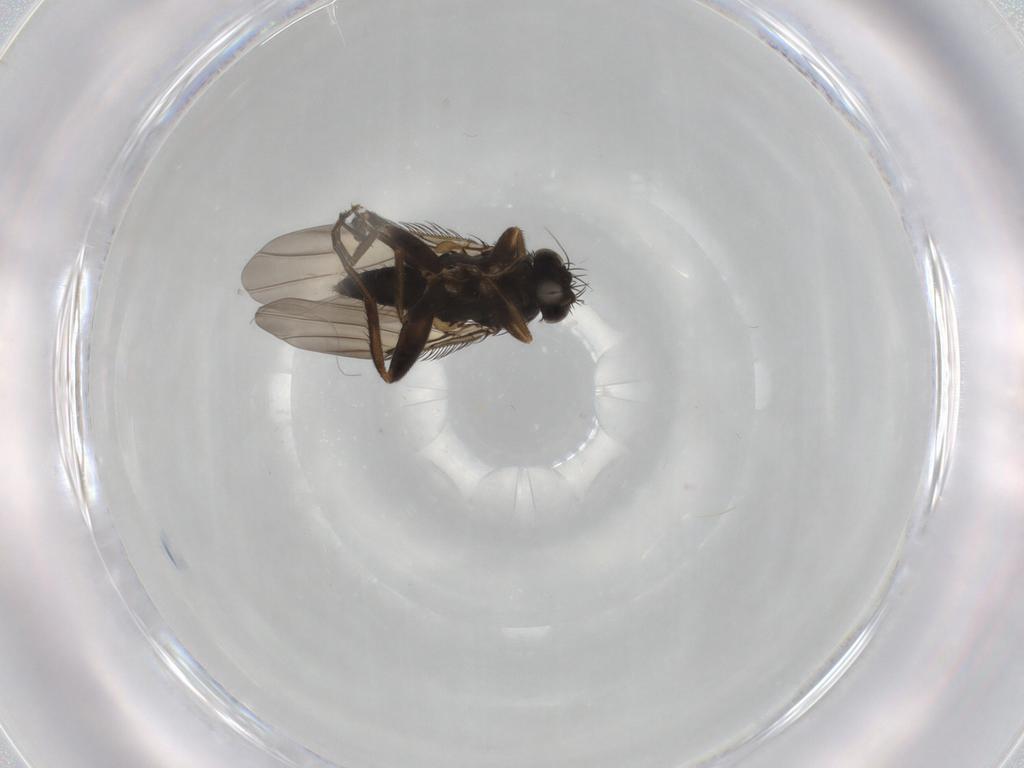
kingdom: Animalia
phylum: Arthropoda
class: Insecta
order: Diptera
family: Phoridae
